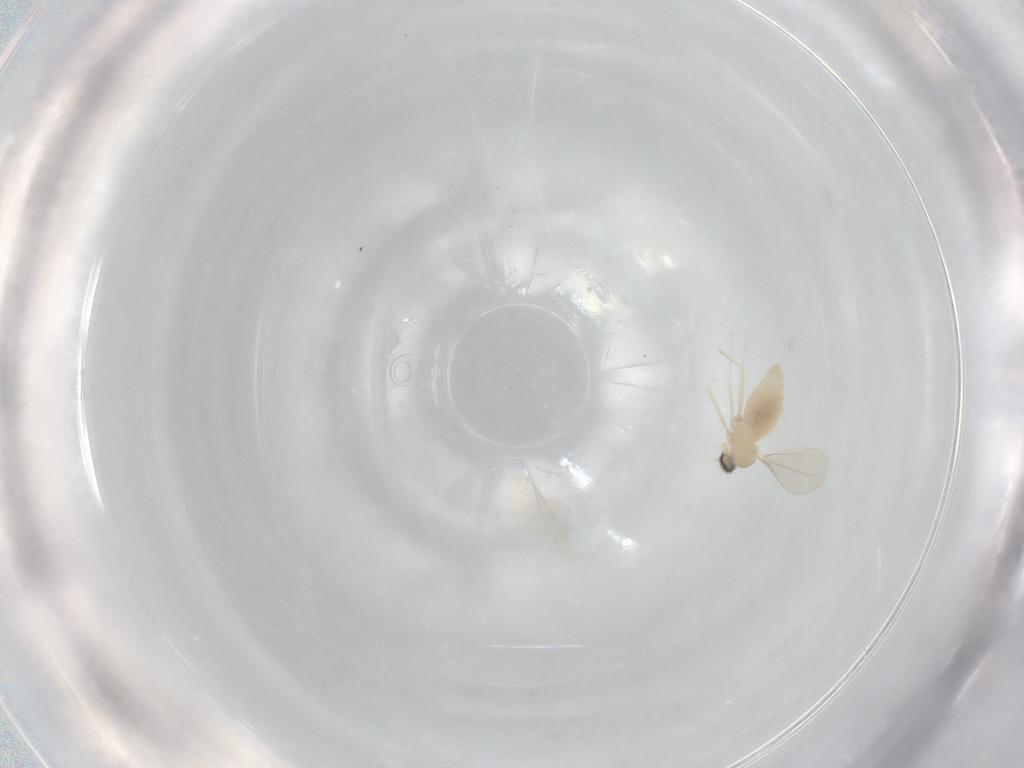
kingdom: Animalia
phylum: Arthropoda
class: Insecta
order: Diptera
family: Cecidomyiidae
